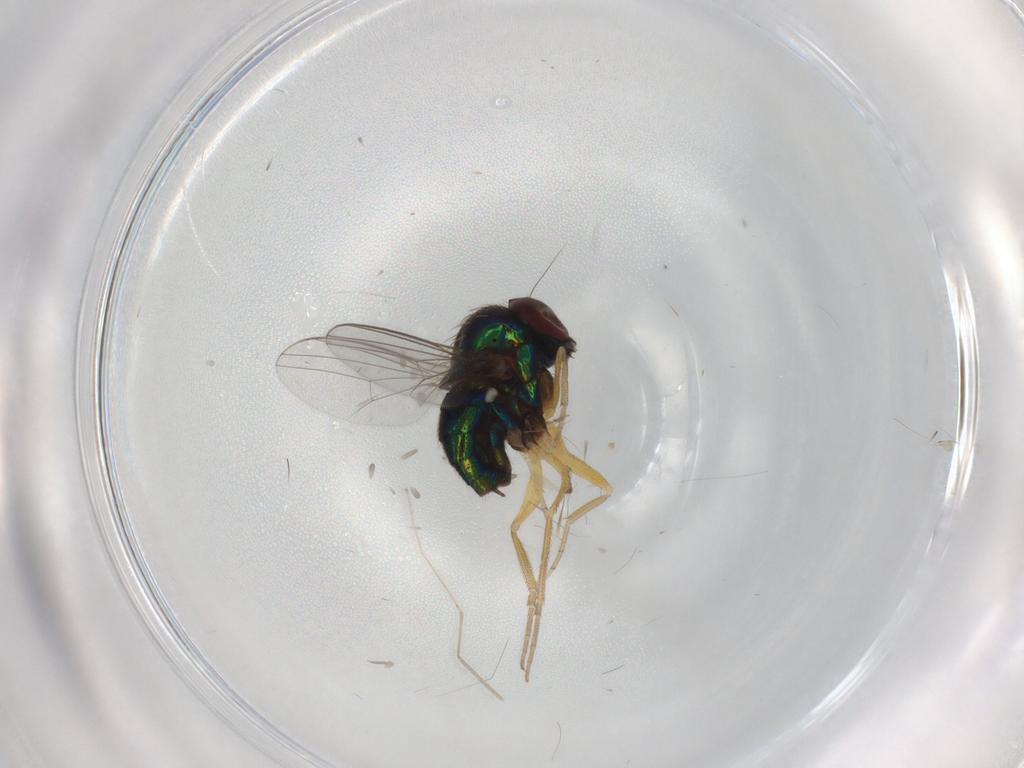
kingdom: Animalia
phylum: Arthropoda
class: Insecta
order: Diptera
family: Dolichopodidae
